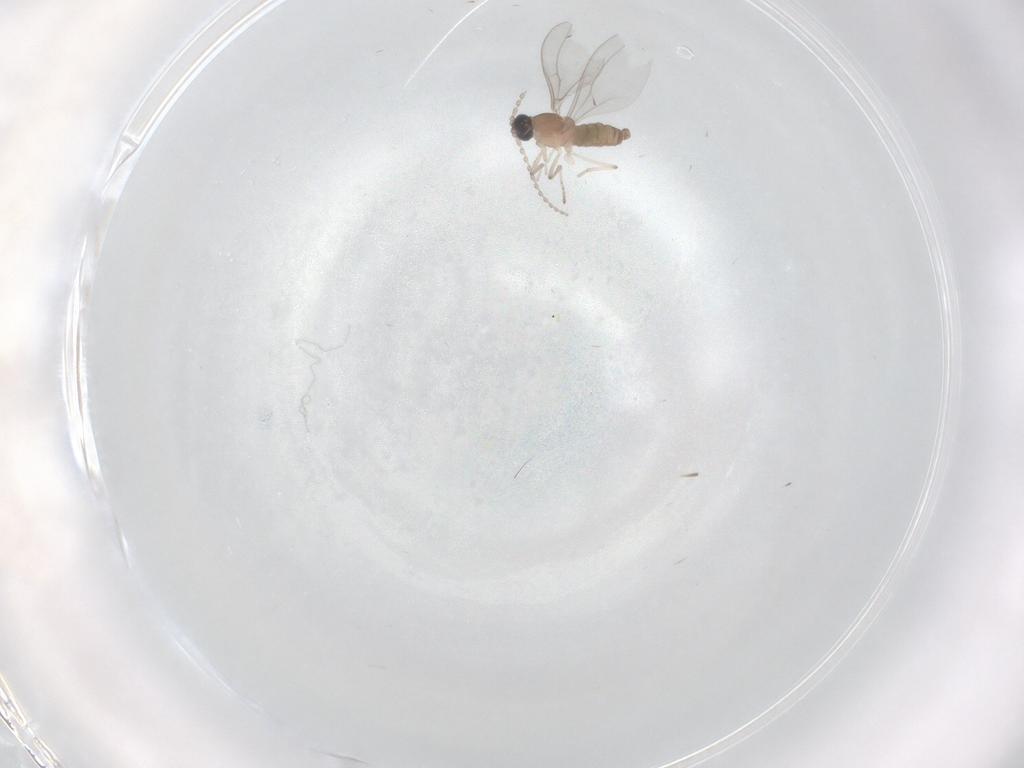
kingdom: Animalia
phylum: Arthropoda
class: Insecta
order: Diptera
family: Cecidomyiidae
